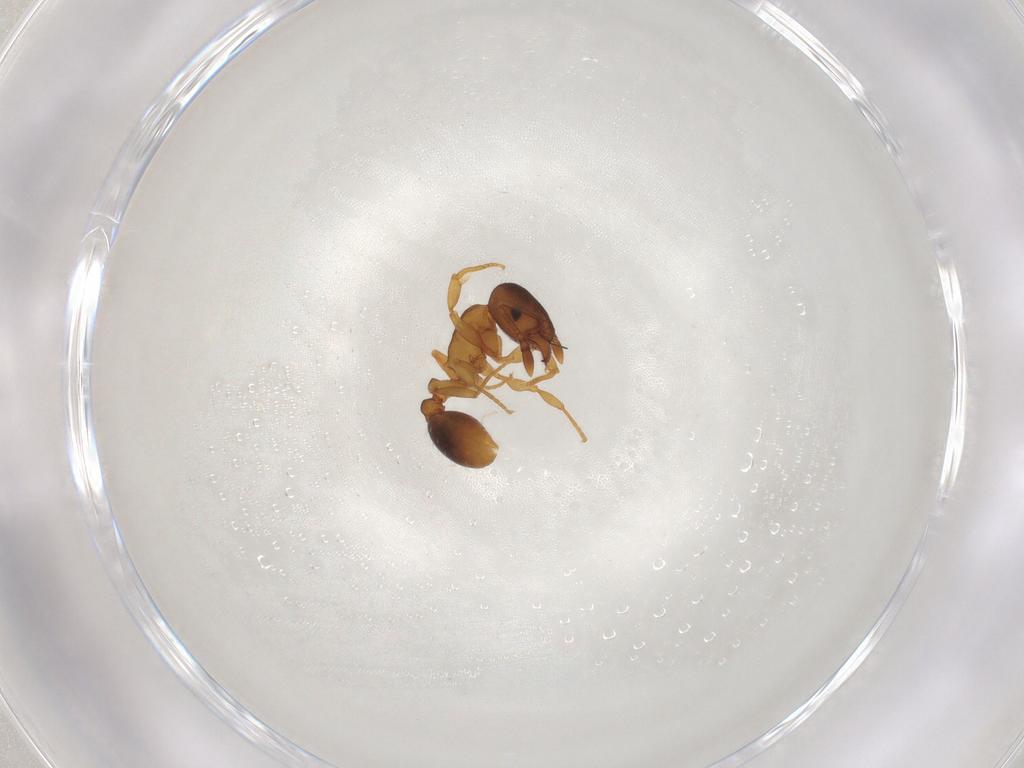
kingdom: Animalia
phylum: Arthropoda
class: Insecta
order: Hymenoptera
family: Formicidae
